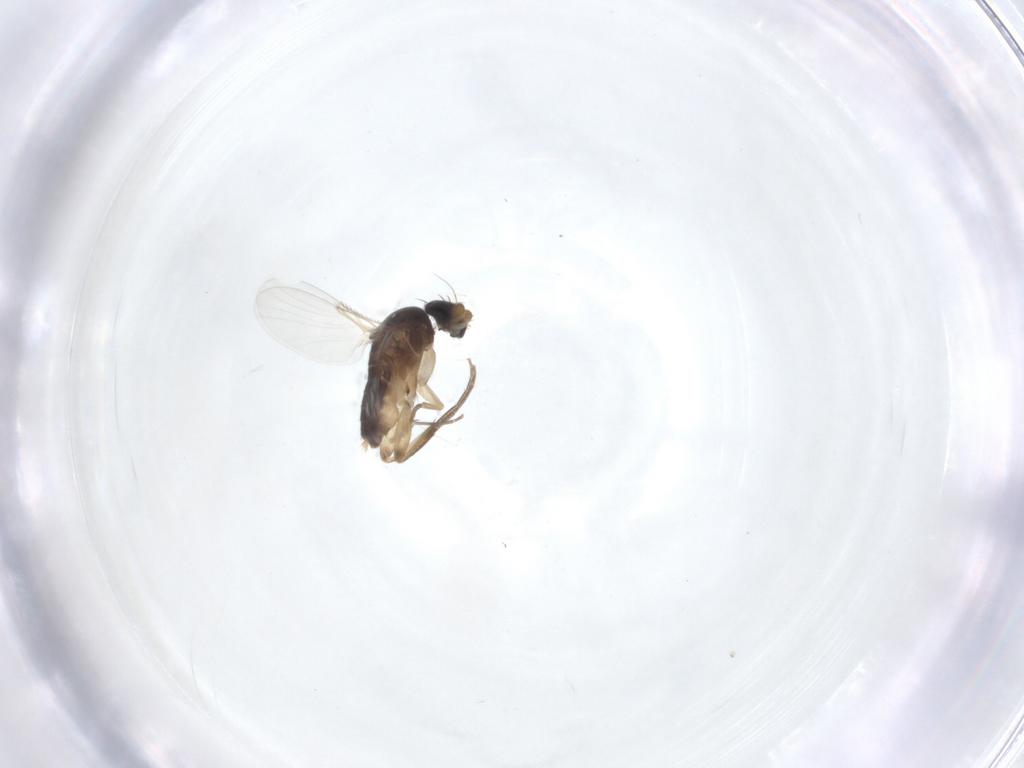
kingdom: Animalia
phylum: Arthropoda
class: Insecta
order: Diptera
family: Phoridae
